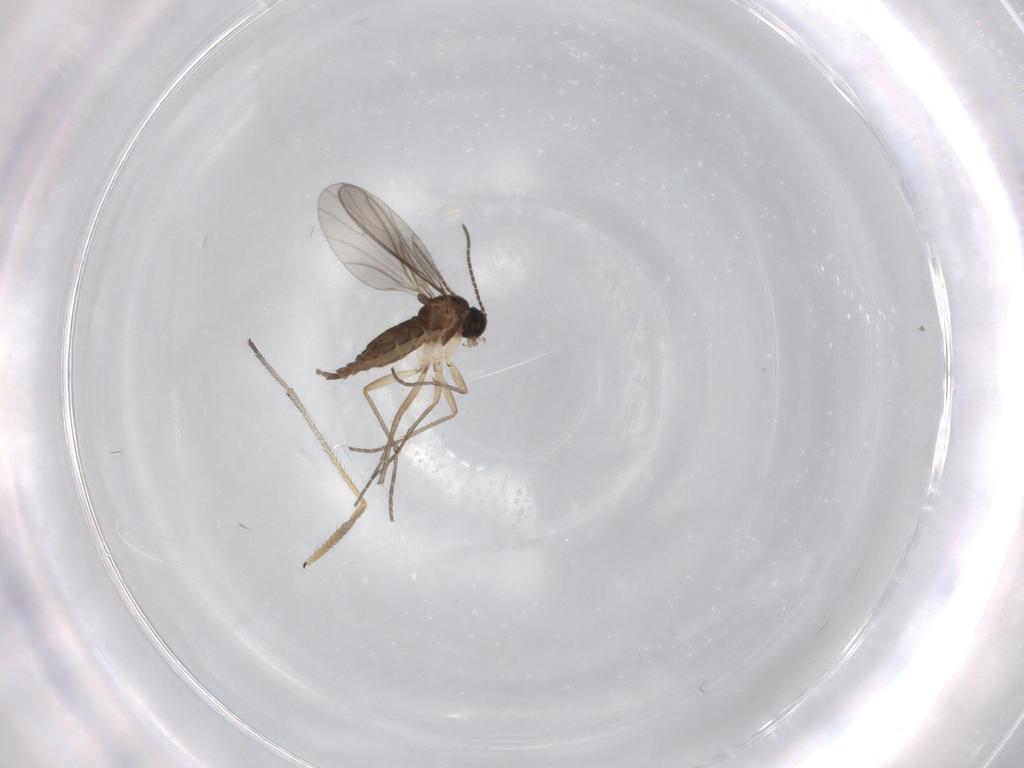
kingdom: Animalia
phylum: Arthropoda
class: Insecta
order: Diptera
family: Sciaridae
